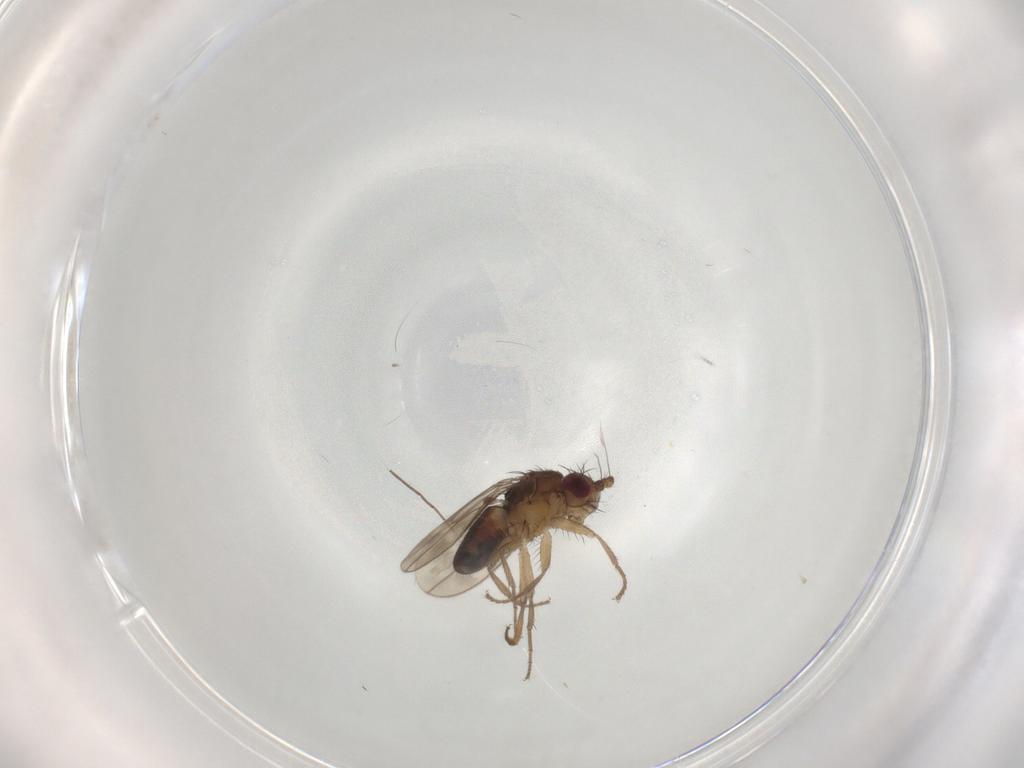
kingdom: Animalia
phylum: Arthropoda
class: Insecta
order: Diptera
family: Sphaeroceridae
